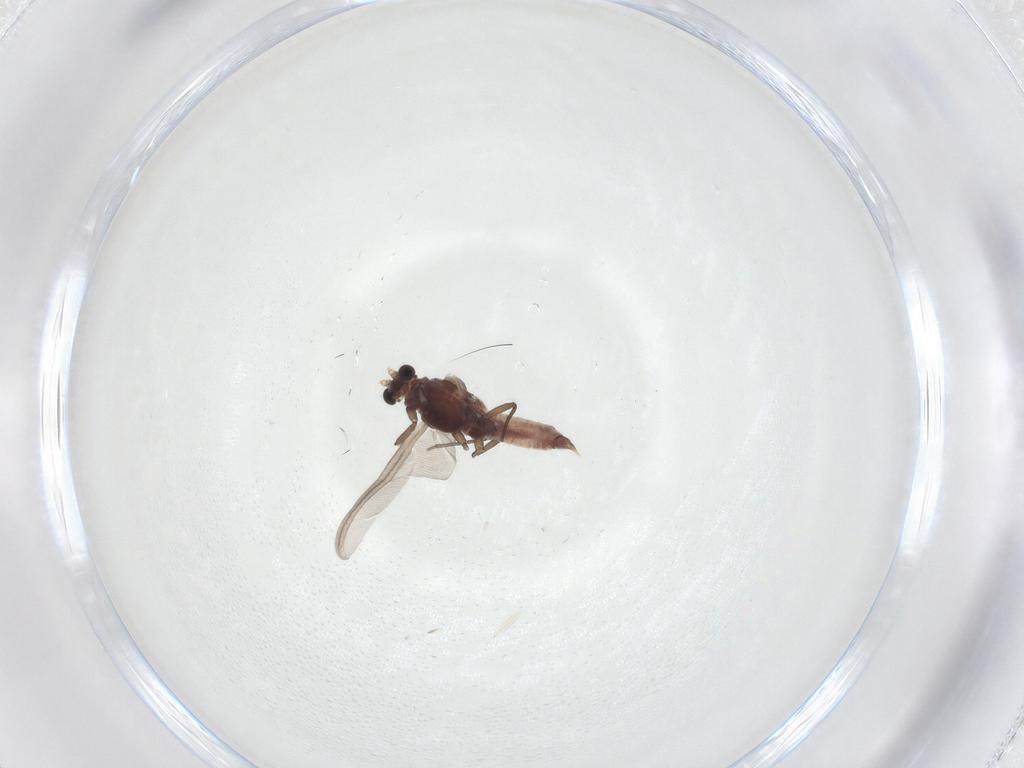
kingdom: Animalia
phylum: Arthropoda
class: Insecta
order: Hemiptera
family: Matsucoccidae
